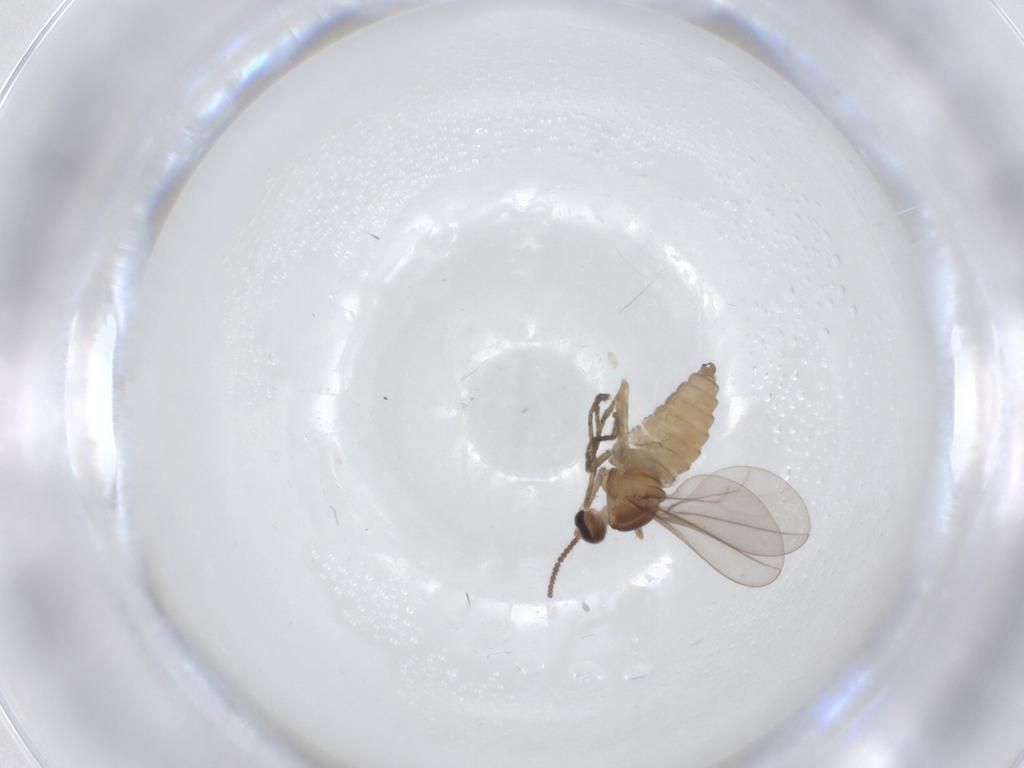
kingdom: Animalia
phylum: Arthropoda
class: Insecta
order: Diptera
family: Cecidomyiidae
